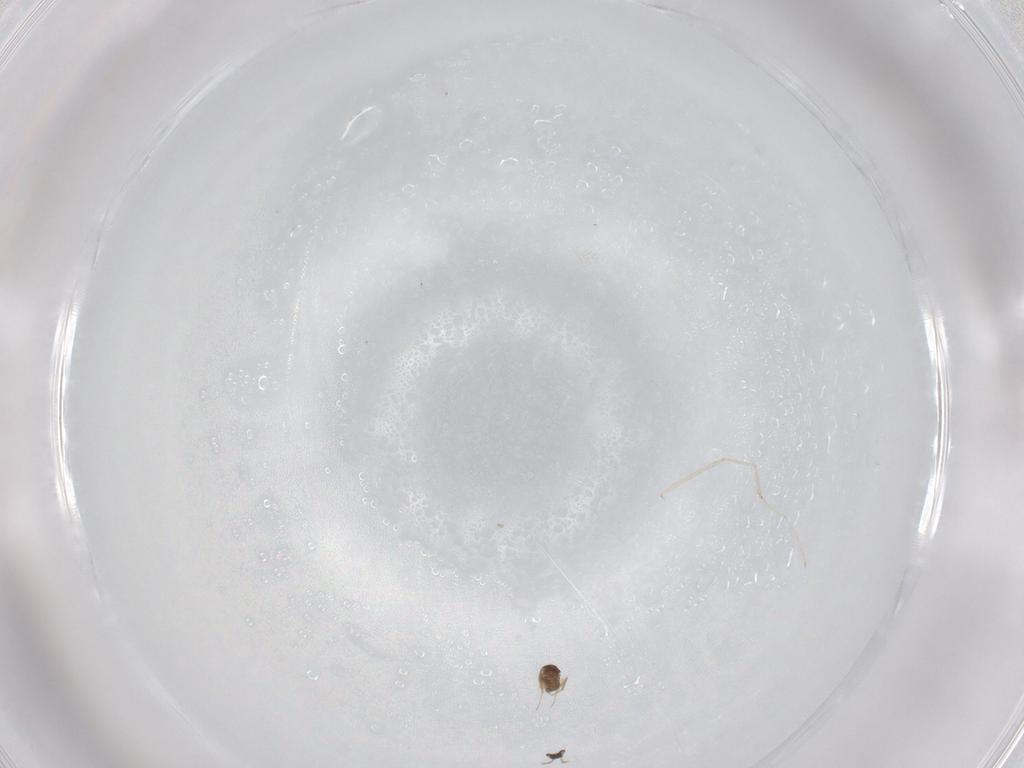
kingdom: Animalia
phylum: Arthropoda
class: Insecta
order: Hymenoptera
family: Mymaridae
